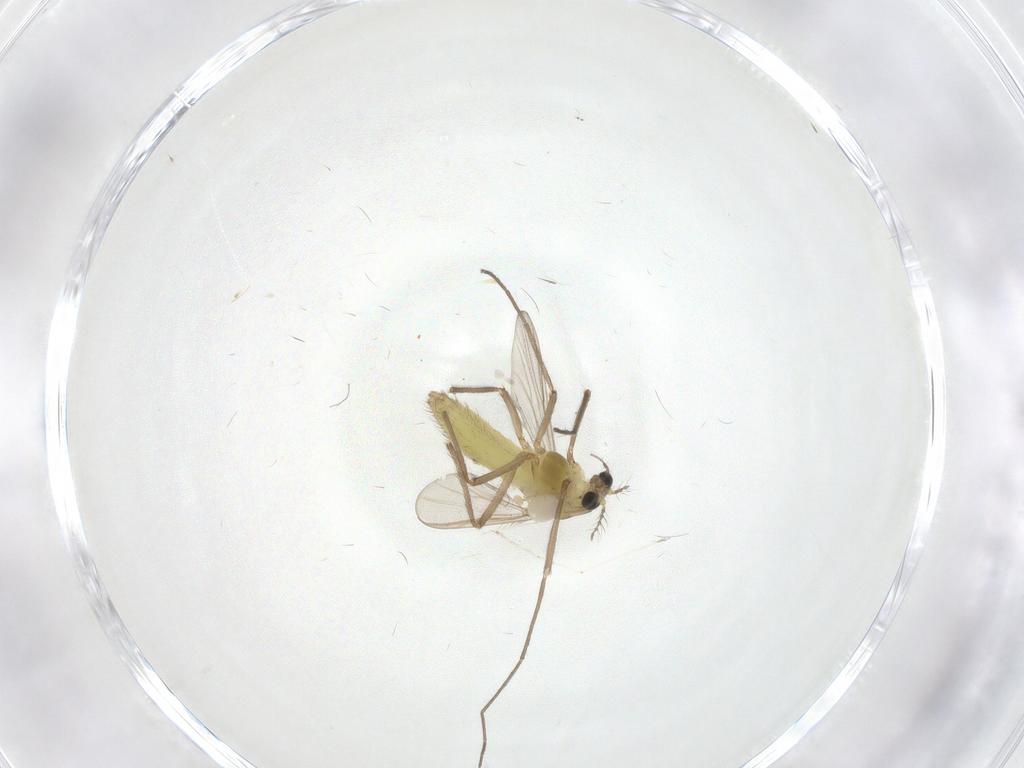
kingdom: Animalia
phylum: Arthropoda
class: Insecta
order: Diptera
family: Chironomidae
